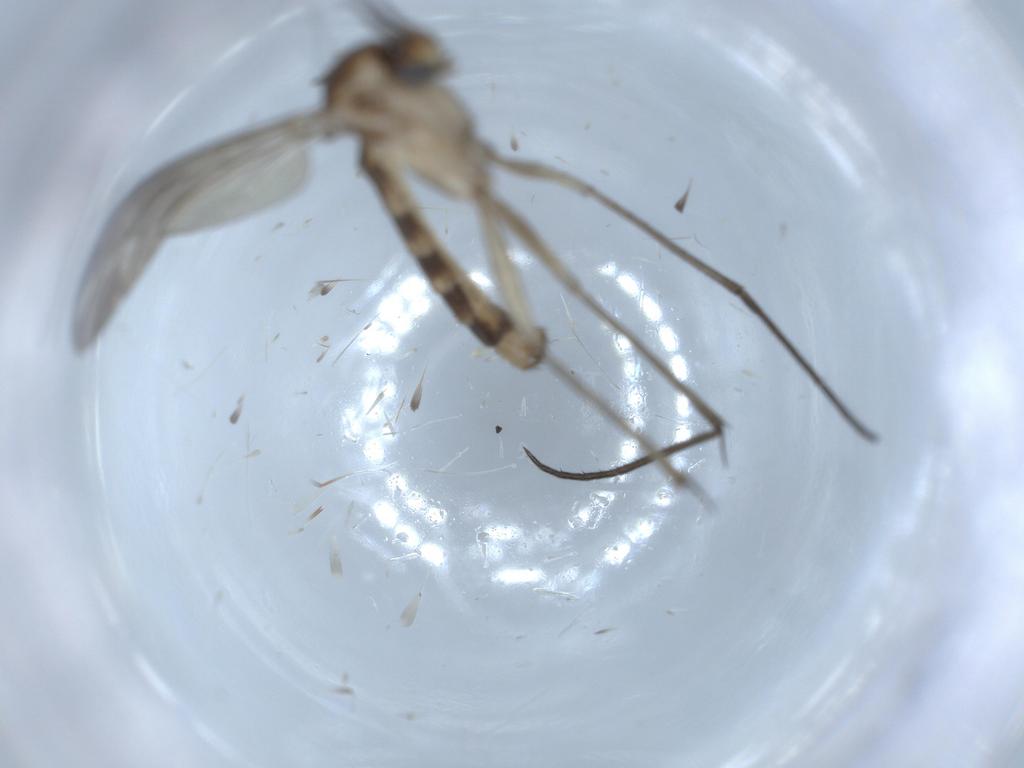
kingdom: Animalia
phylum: Arthropoda
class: Insecta
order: Diptera
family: Mycetophilidae
